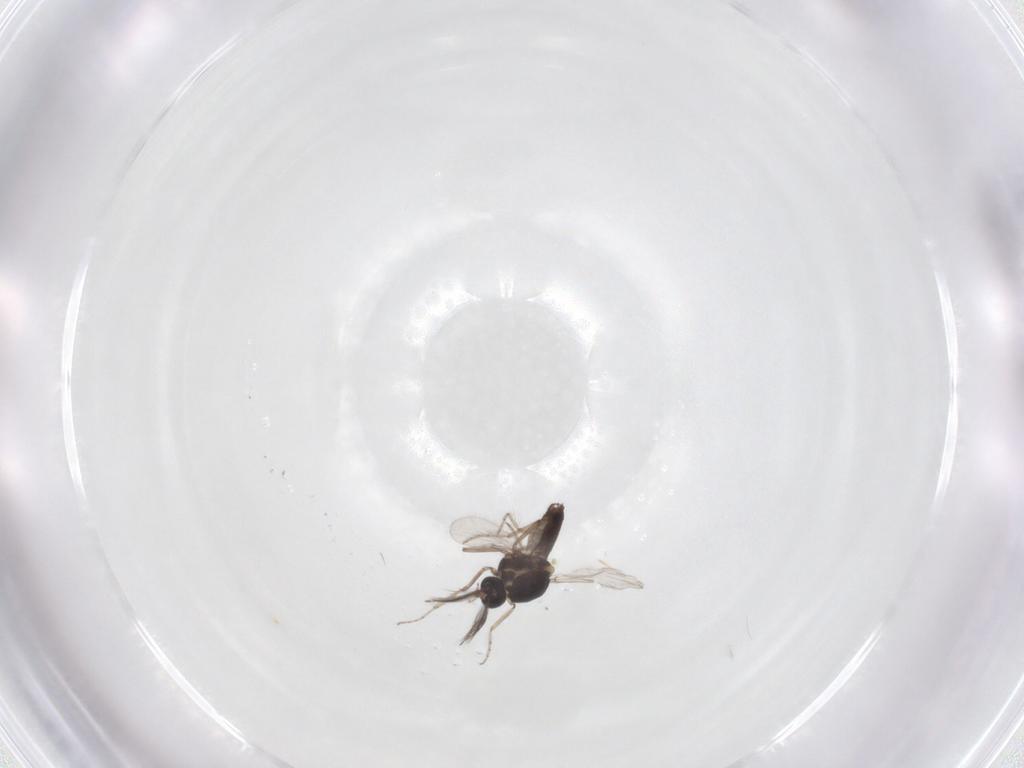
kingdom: Animalia
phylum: Arthropoda
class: Insecta
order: Diptera
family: Ceratopogonidae
